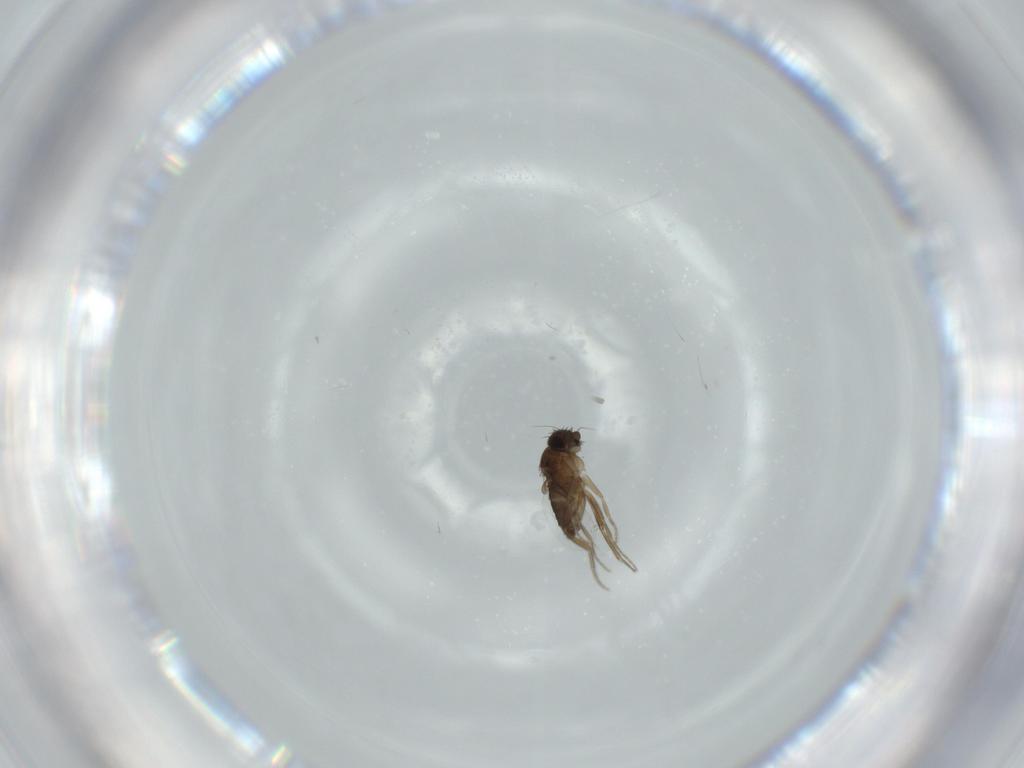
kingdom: Animalia
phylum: Arthropoda
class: Insecta
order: Diptera
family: Phoridae
